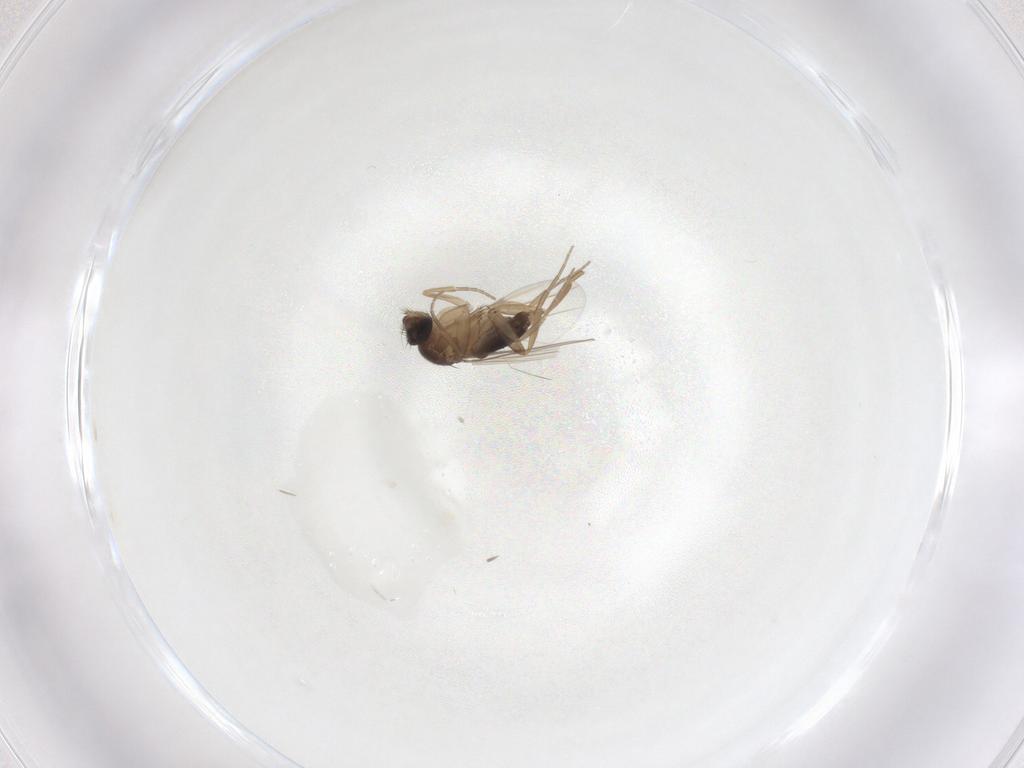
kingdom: Animalia
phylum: Arthropoda
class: Insecta
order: Diptera
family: Phoridae
